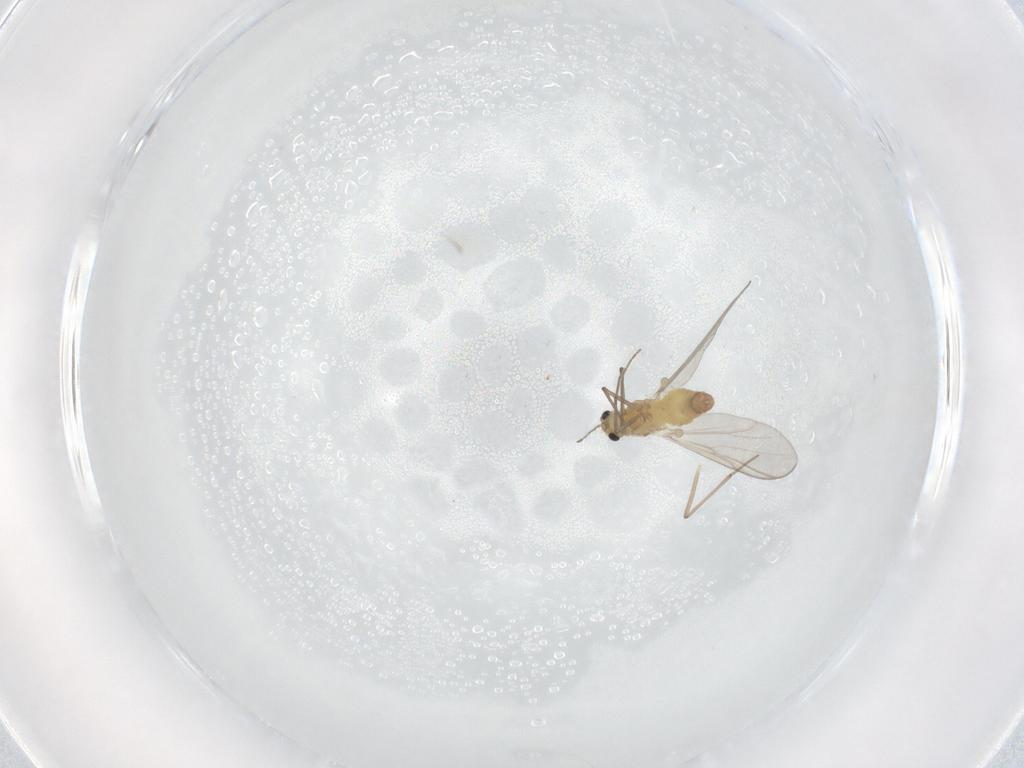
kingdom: Animalia
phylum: Arthropoda
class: Insecta
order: Diptera
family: Chironomidae
